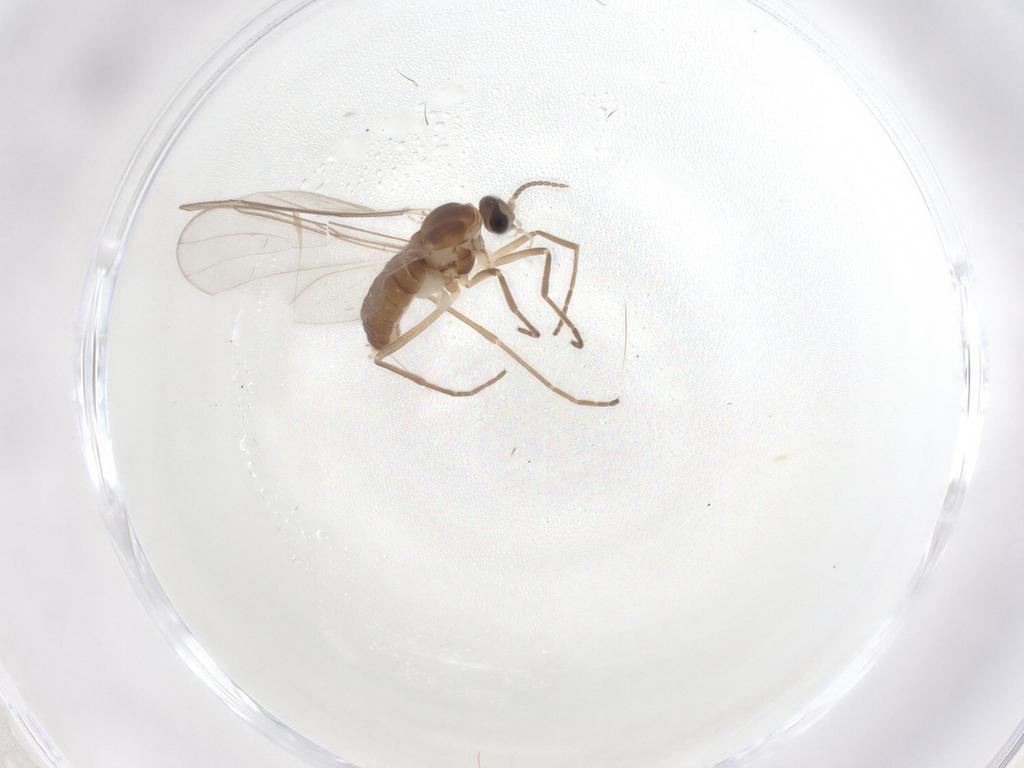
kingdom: Animalia
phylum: Arthropoda
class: Insecta
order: Diptera
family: Cecidomyiidae
